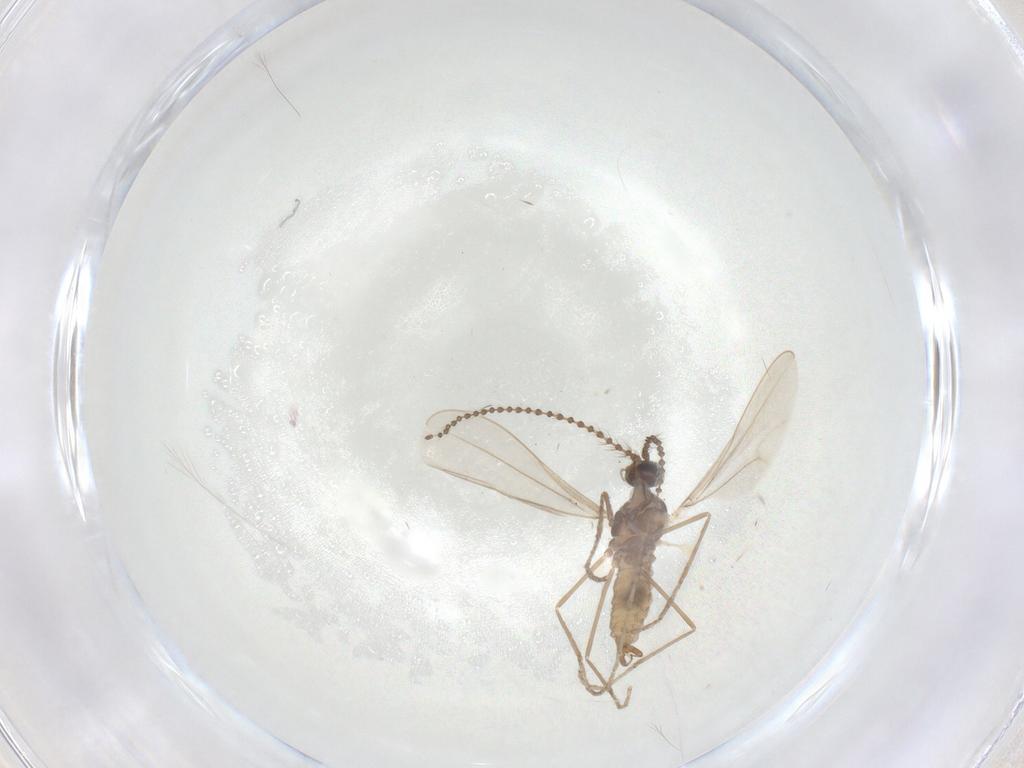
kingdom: Animalia
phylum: Arthropoda
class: Insecta
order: Diptera
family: Cecidomyiidae
